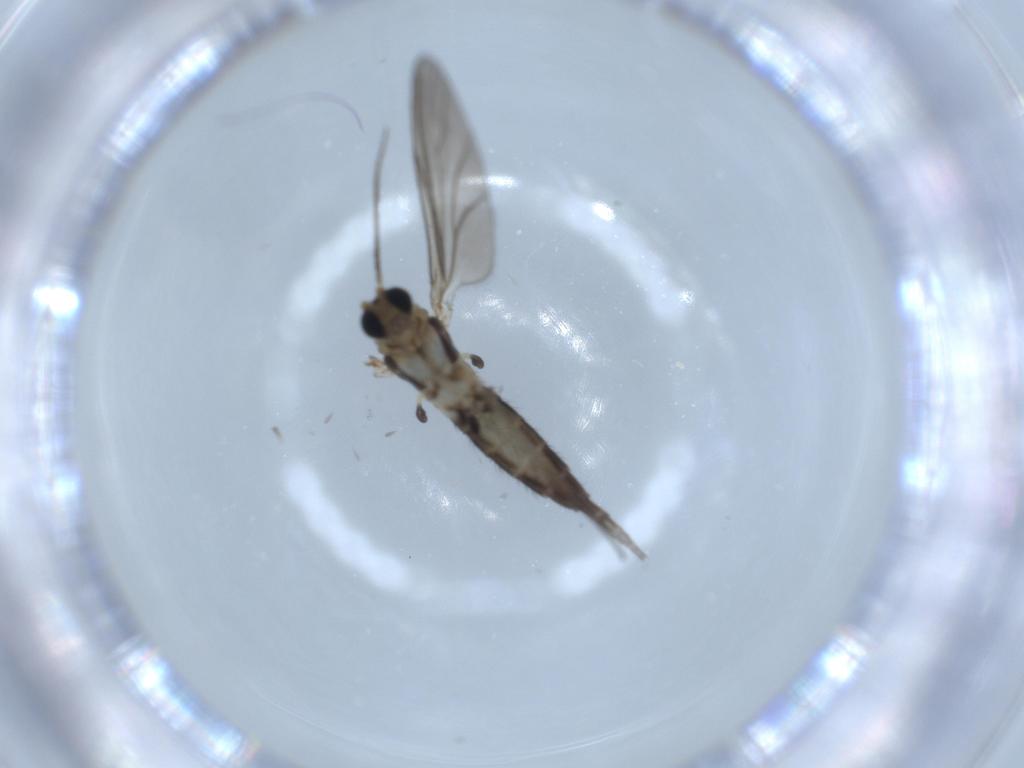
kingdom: Animalia
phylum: Arthropoda
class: Insecta
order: Diptera
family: Sciaridae
